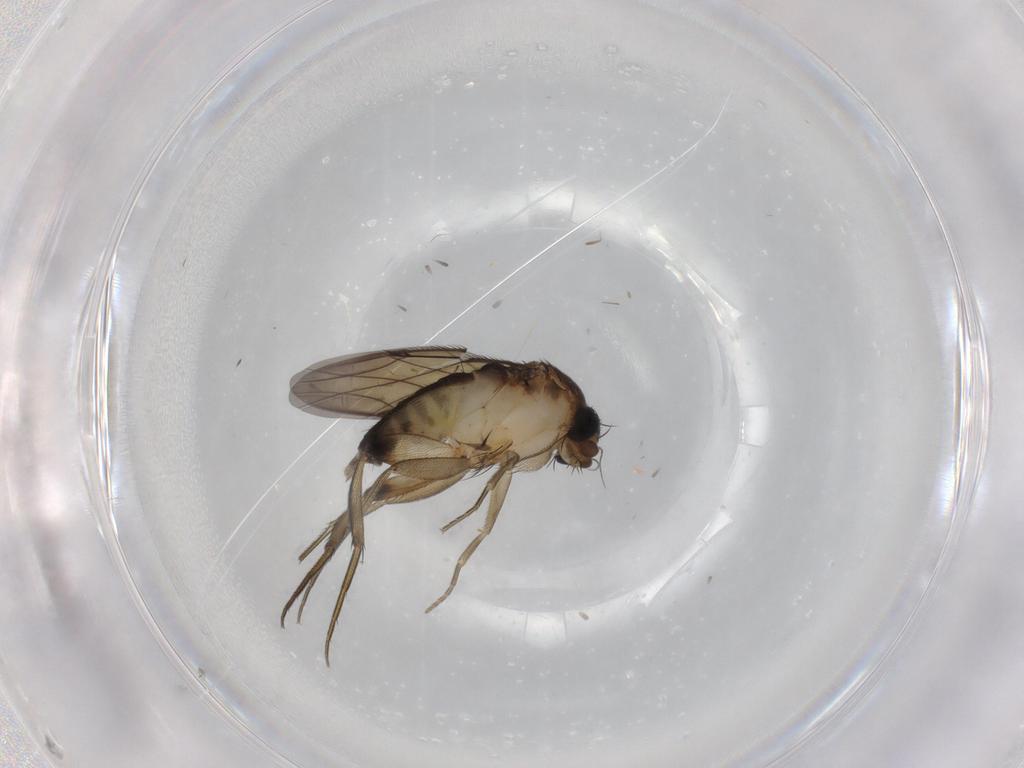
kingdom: Animalia
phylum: Arthropoda
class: Insecta
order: Diptera
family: Phoridae
